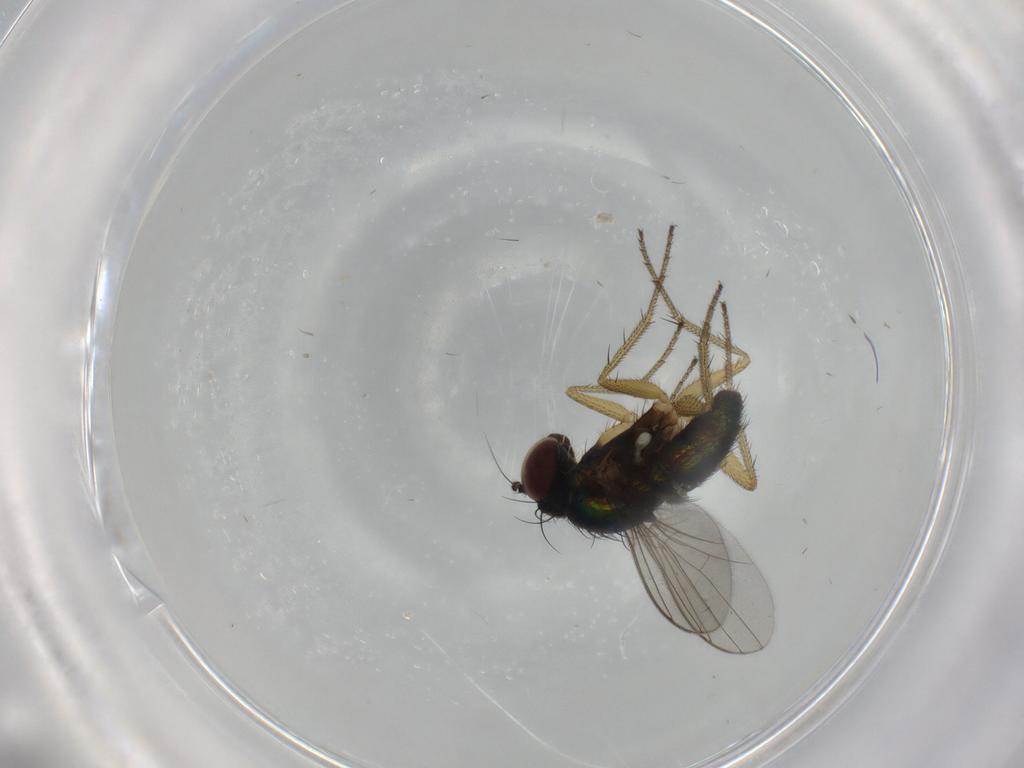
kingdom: Animalia
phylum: Arthropoda
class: Insecta
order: Diptera
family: Dolichopodidae
